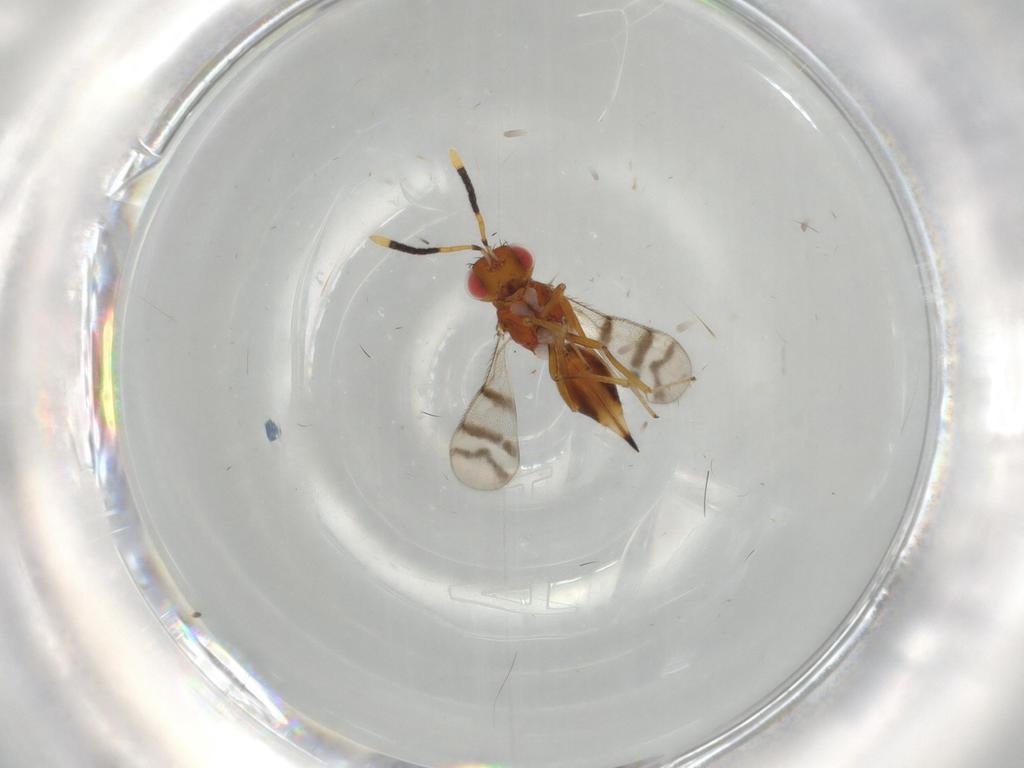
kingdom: Animalia
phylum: Arthropoda
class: Insecta
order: Hymenoptera
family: Diparidae
